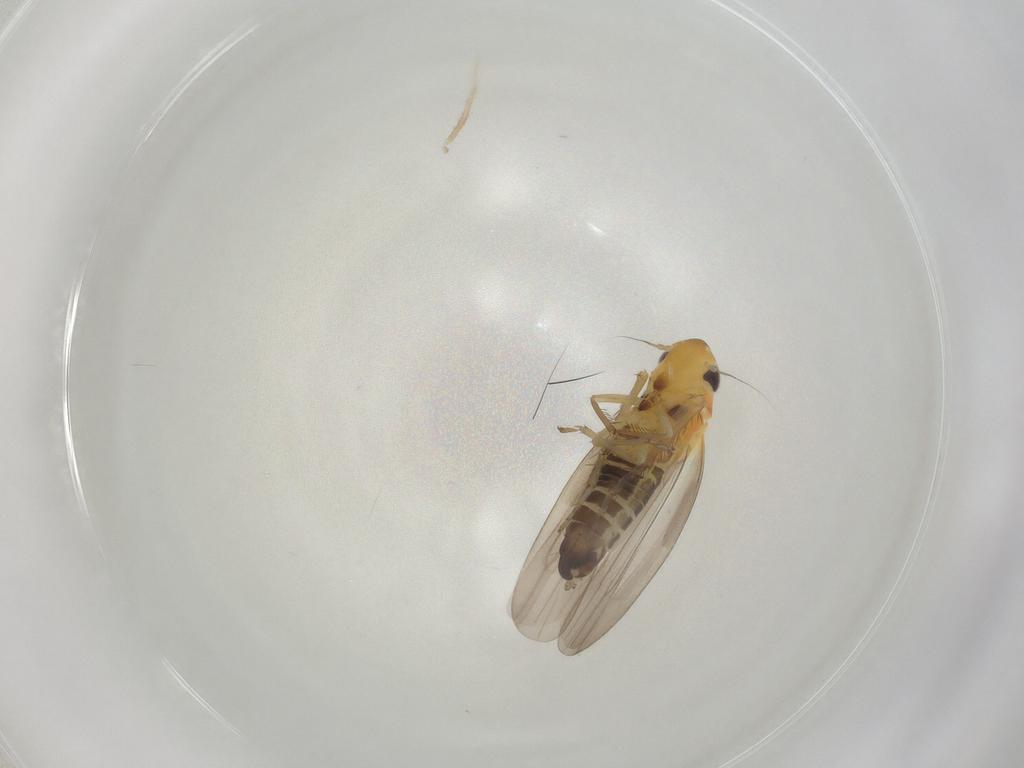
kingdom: Animalia
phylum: Arthropoda
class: Insecta
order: Hemiptera
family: Cicadellidae
